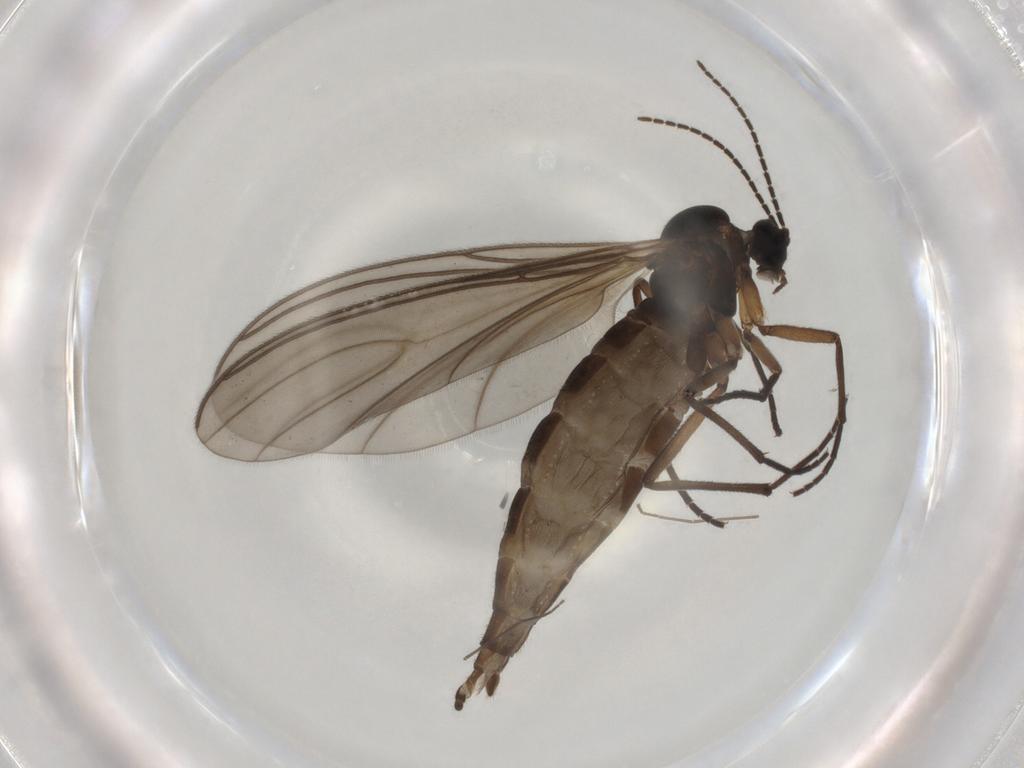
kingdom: Animalia
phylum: Arthropoda
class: Insecta
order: Diptera
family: Sciaridae
